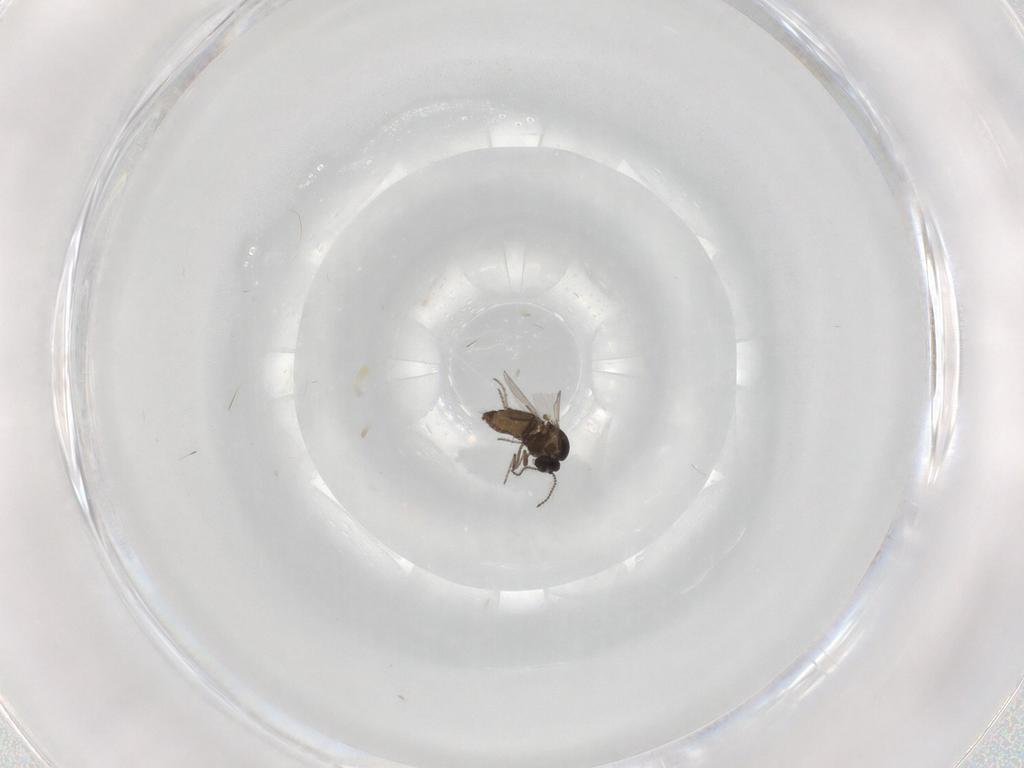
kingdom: Animalia
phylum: Arthropoda
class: Insecta
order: Diptera
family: Ceratopogonidae
